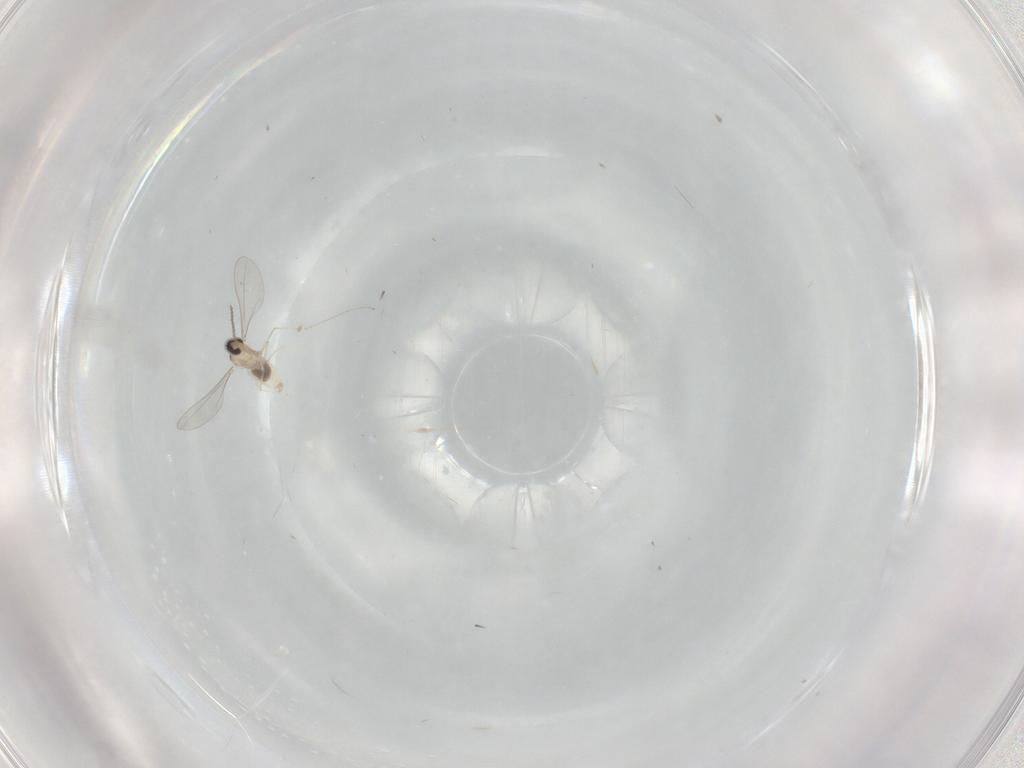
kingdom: Animalia
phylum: Arthropoda
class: Insecta
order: Diptera
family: Cecidomyiidae
